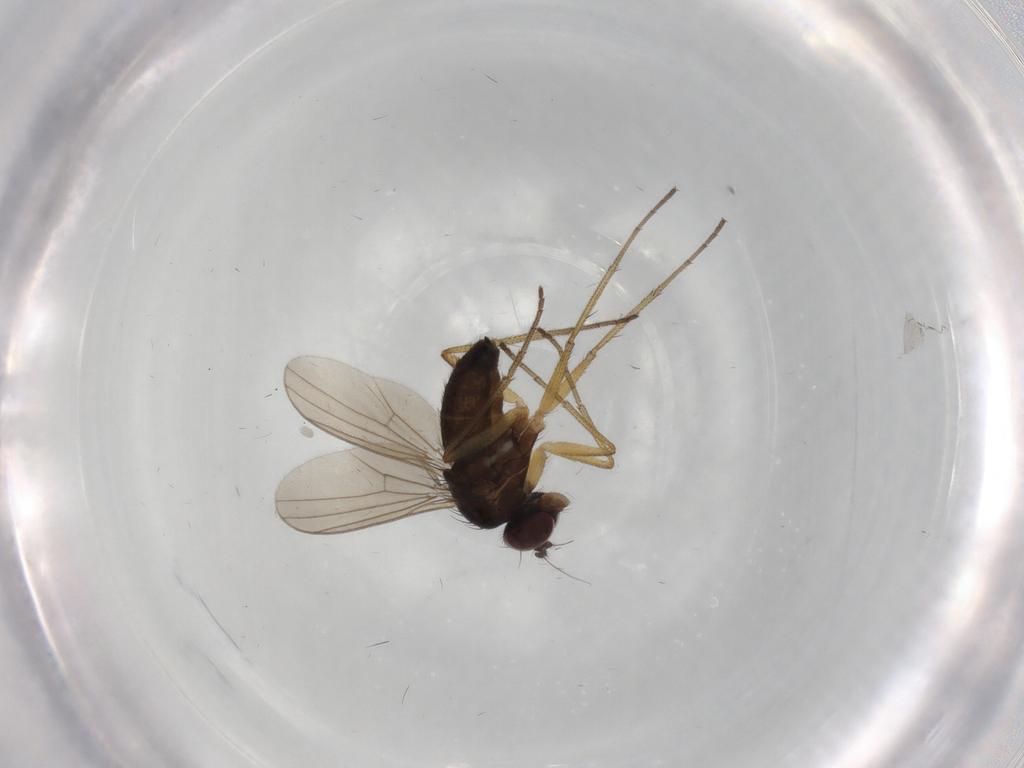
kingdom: Animalia
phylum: Arthropoda
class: Insecta
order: Diptera
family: Dolichopodidae
